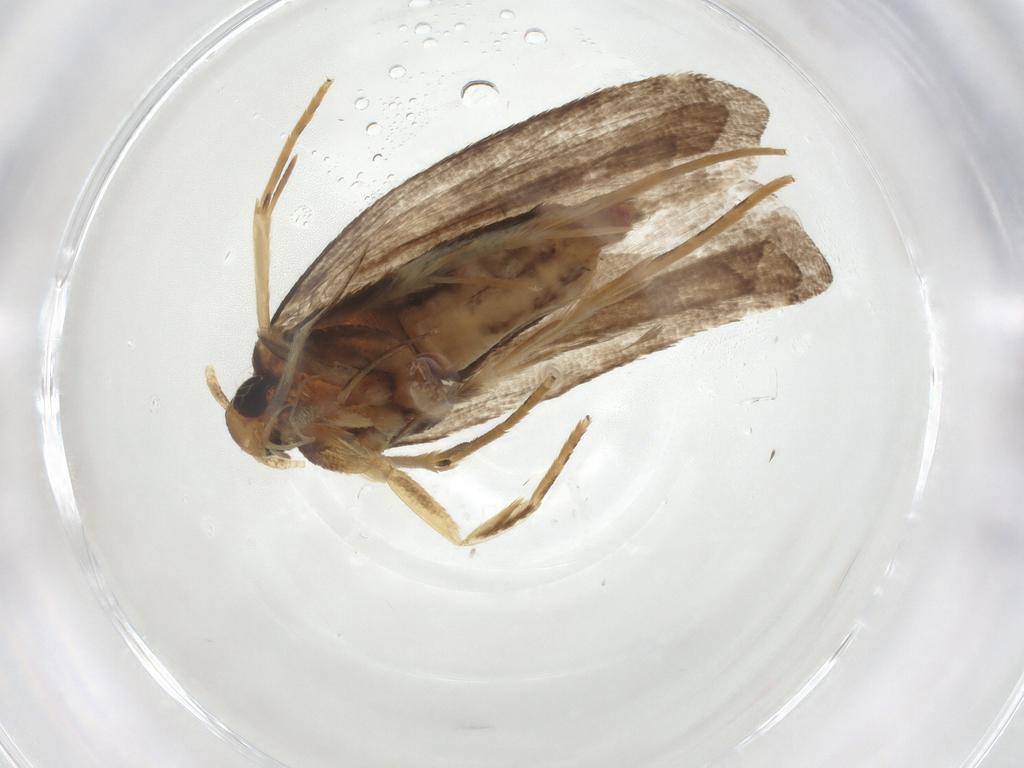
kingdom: Animalia
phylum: Arthropoda
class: Insecta
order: Lepidoptera
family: Lecithoceridae
